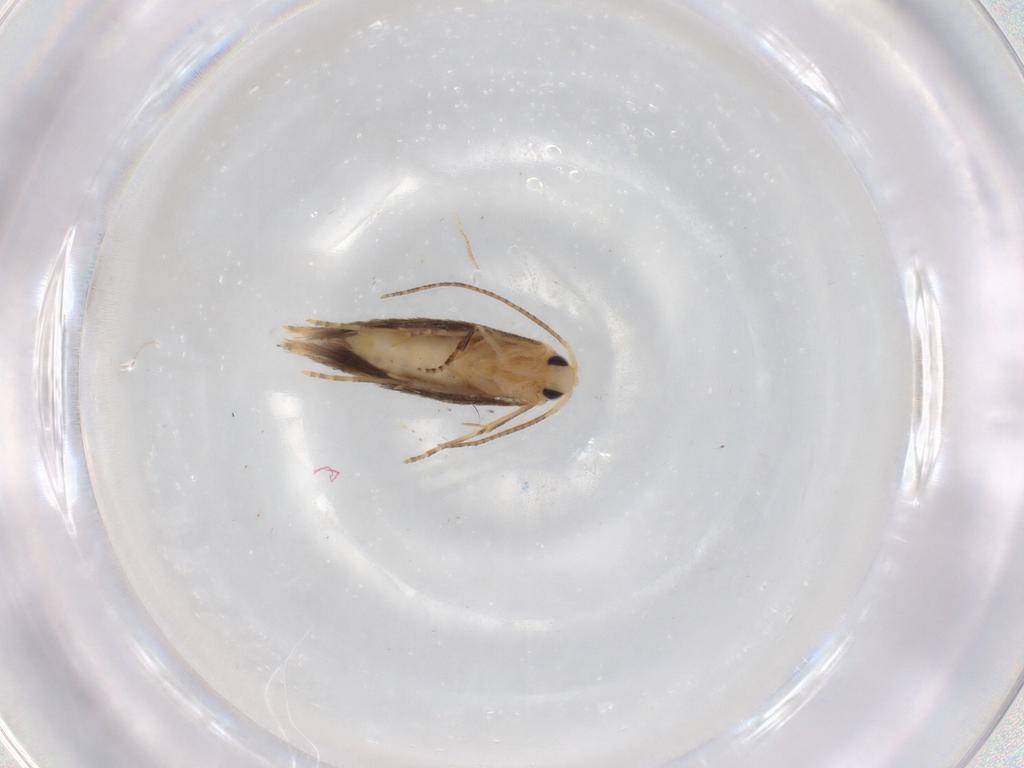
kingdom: Animalia
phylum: Arthropoda
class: Insecta
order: Lepidoptera
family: Bucculatricidae
